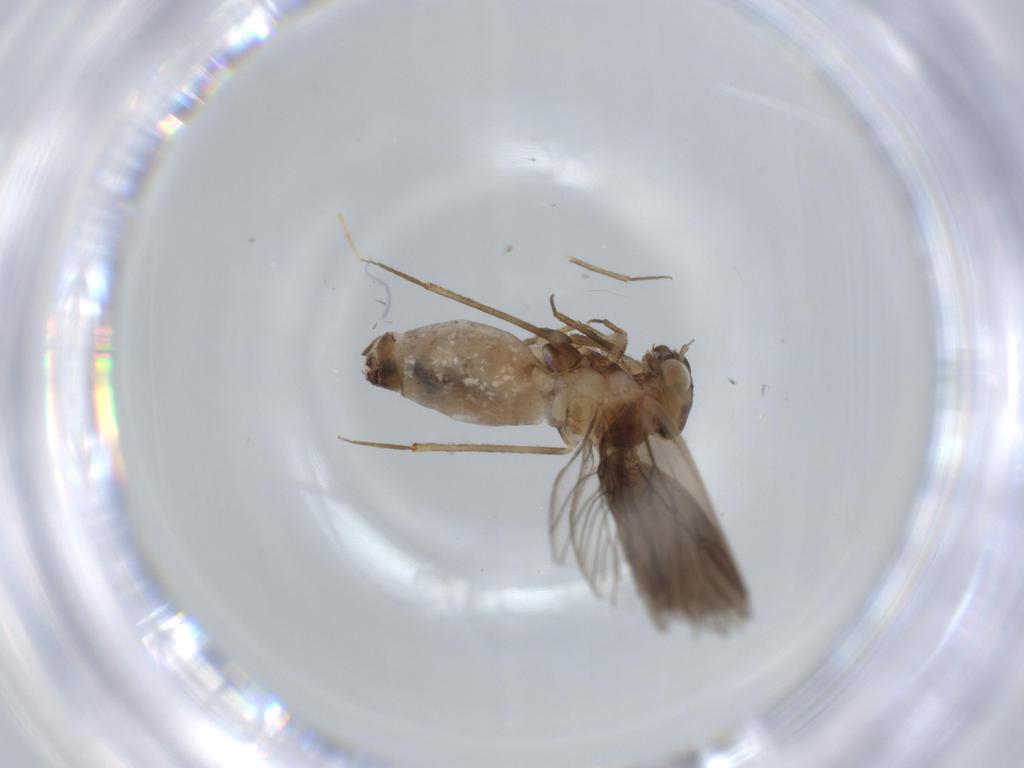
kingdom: Animalia
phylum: Arthropoda
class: Insecta
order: Psocodea
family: Lepidopsocidae
